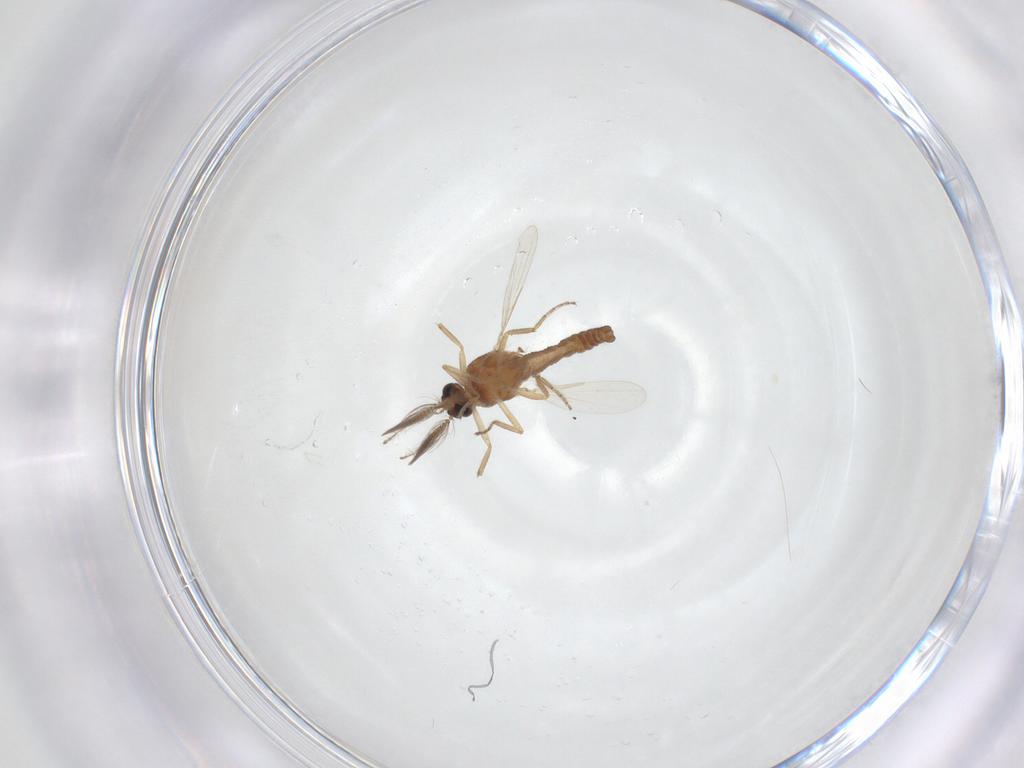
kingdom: Animalia
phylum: Arthropoda
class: Insecta
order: Diptera
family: Ceratopogonidae
